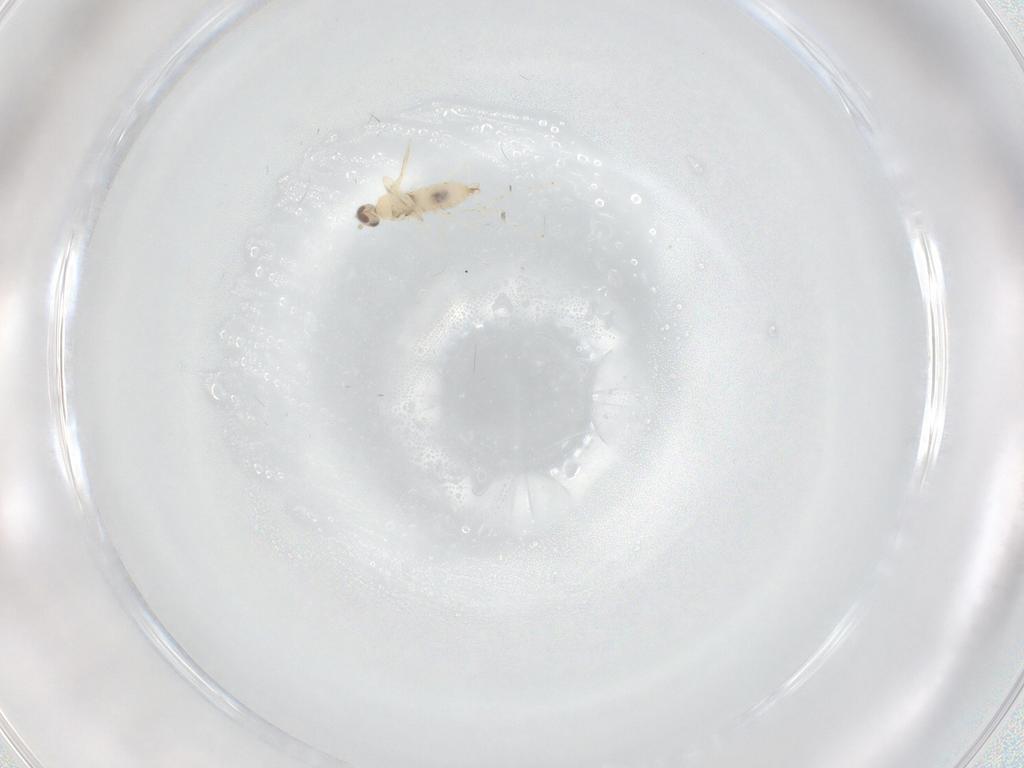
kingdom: Animalia
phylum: Arthropoda
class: Insecta
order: Diptera
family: Cecidomyiidae
